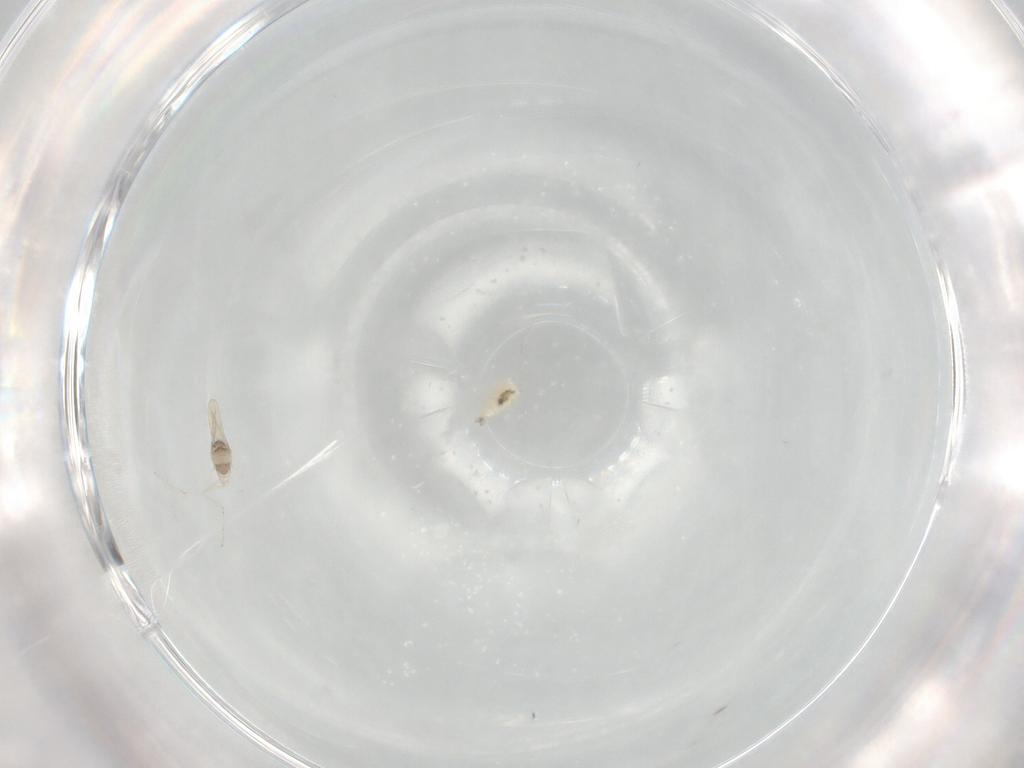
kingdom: Animalia
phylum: Arthropoda
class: Insecta
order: Diptera
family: Cecidomyiidae
